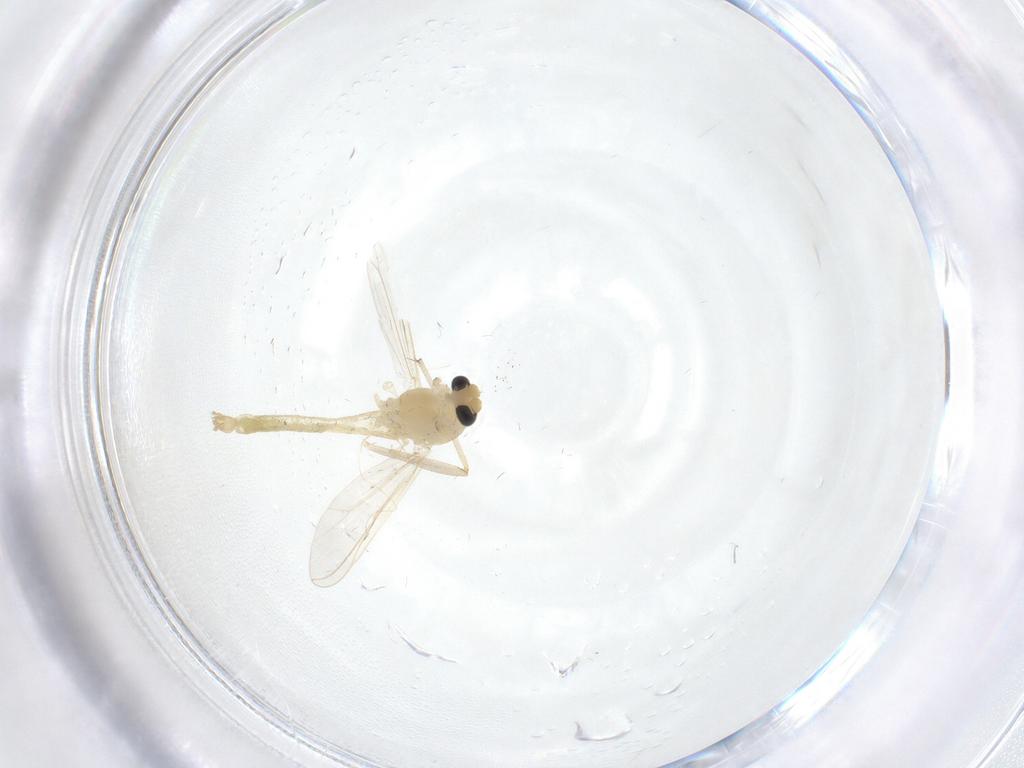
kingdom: Animalia
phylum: Arthropoda
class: Insecta
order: Diptera
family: Chironomidae
